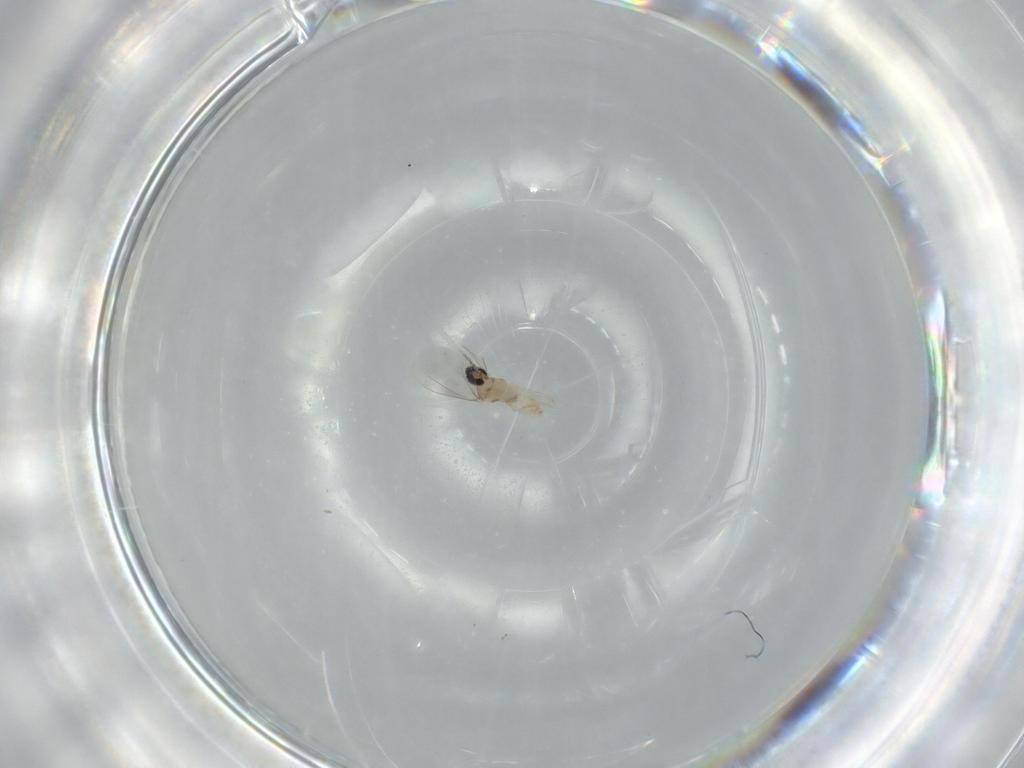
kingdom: Animalia
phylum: Arthropoda
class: Insecta
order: Diptera
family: Cecidomyiidae
